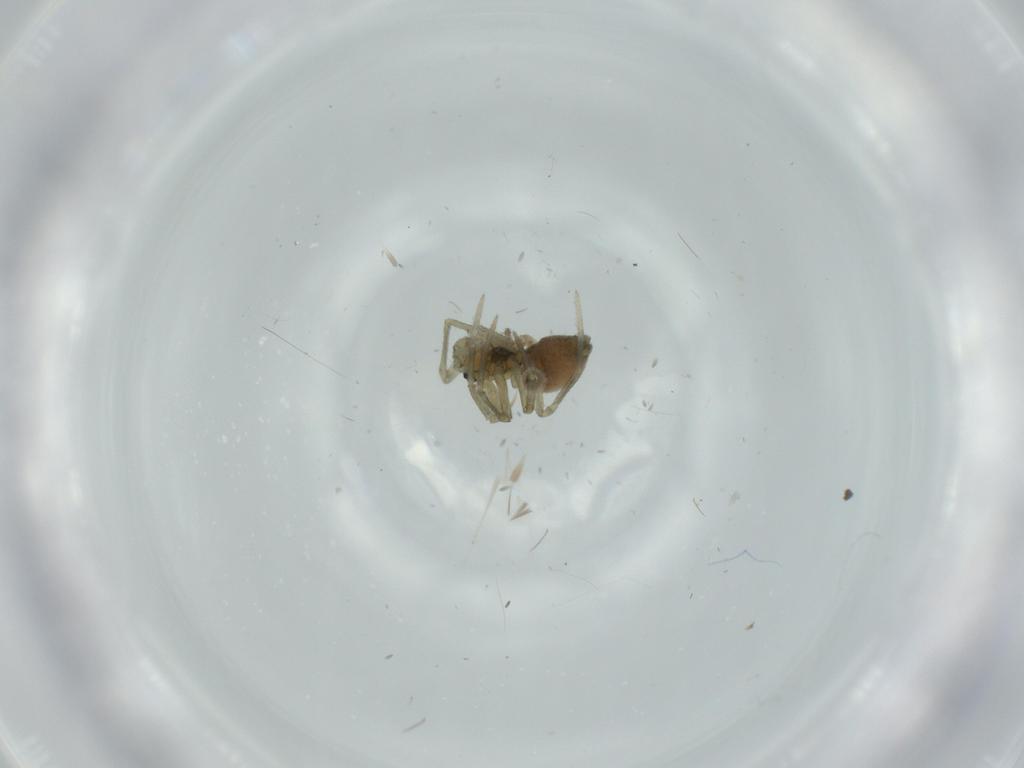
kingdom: Animalia
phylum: Arthropoda
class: Arachnida
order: Araneae
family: Linyphiidae
